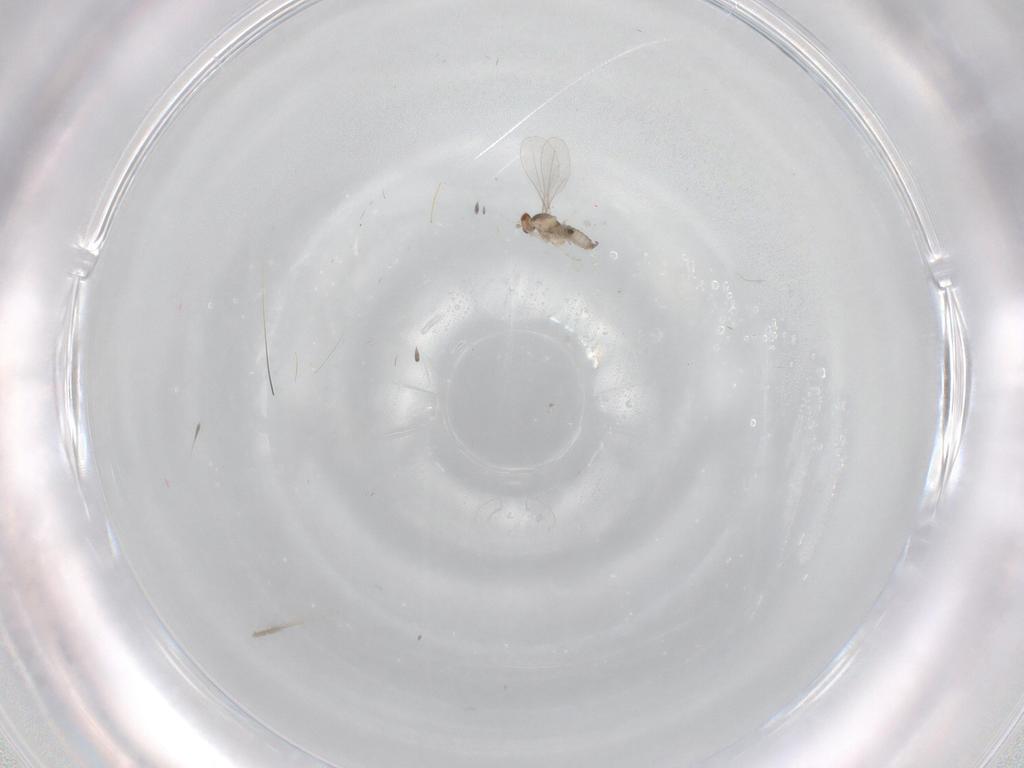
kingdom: Animalia
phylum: Arthropoda
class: Insecta
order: Diptera
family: Cecidomyiidae
